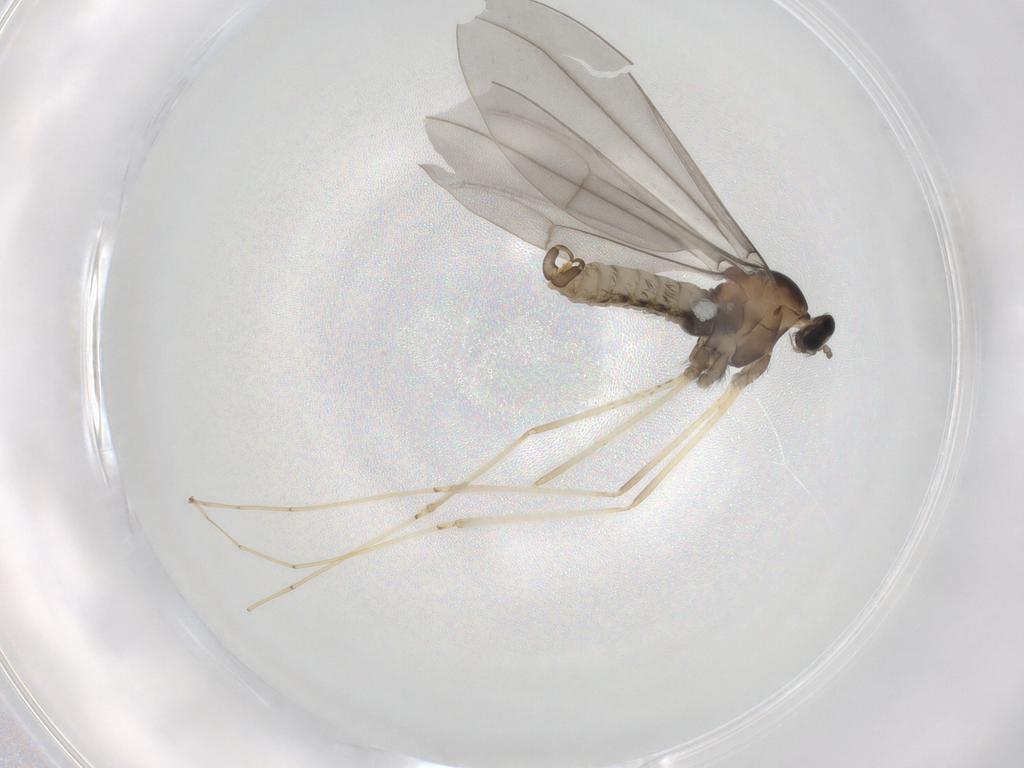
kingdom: Animalia
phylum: Arthropoda
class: Insecta
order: Diptera
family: Cecidomyiidae
